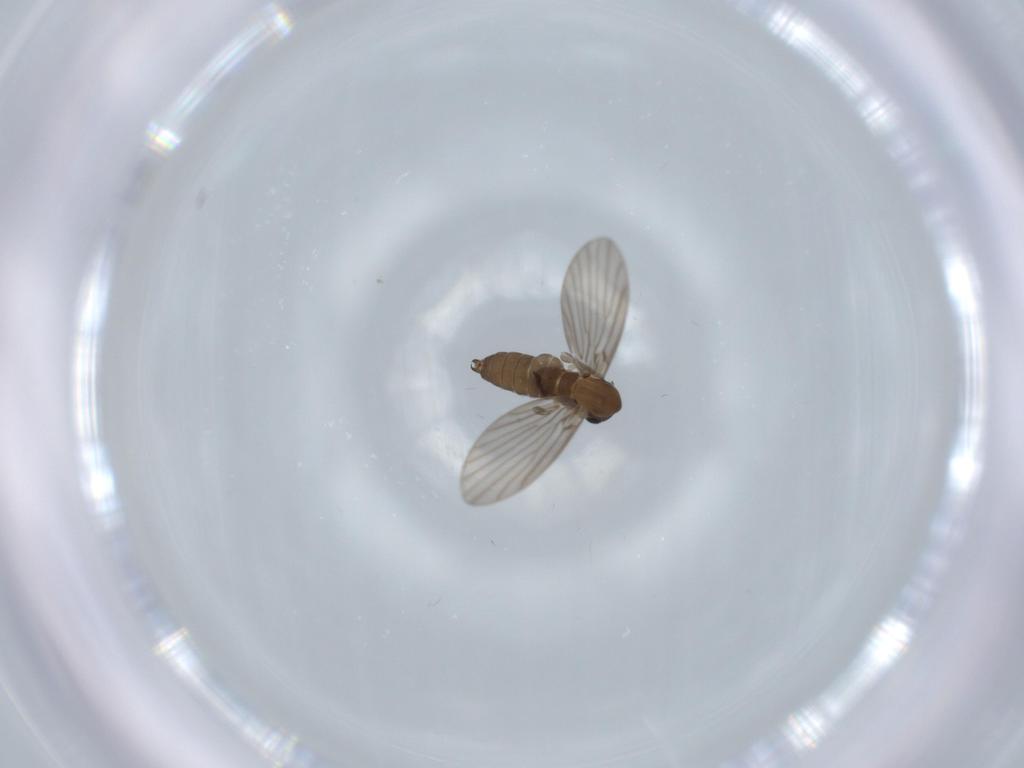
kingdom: Animalia
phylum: Arthropoda
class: Insecta
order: Diptera
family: Psychodidae
